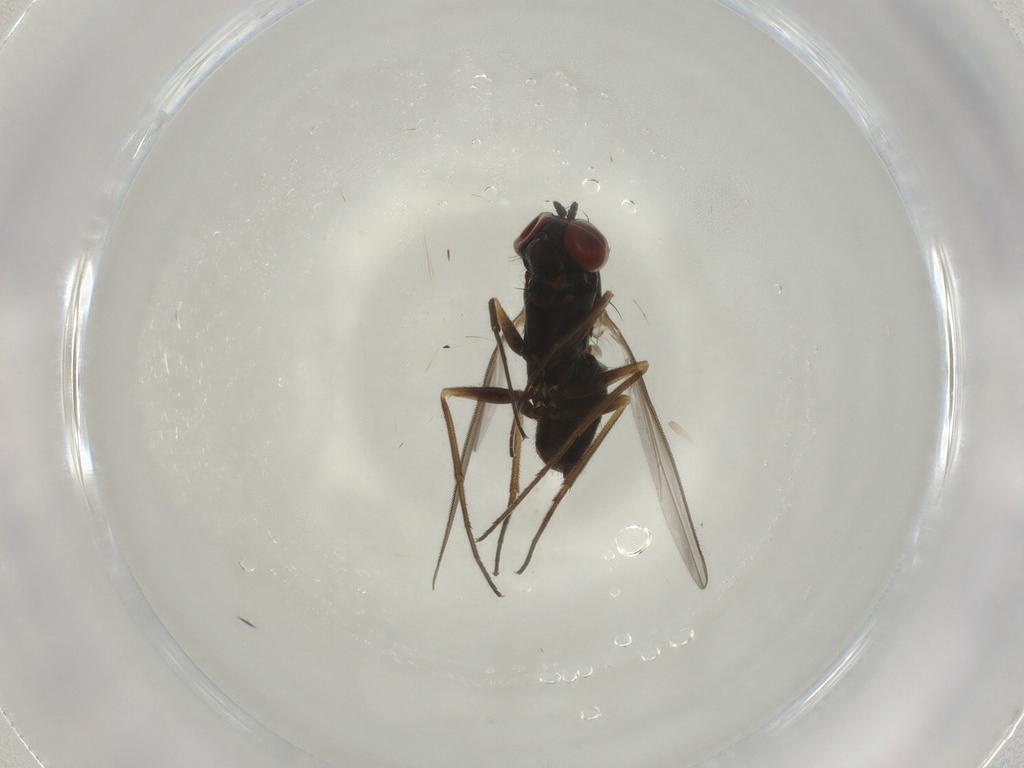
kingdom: Animalia
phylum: Arthropoda
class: Insecta
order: Diptera
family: Dolichopodidae
